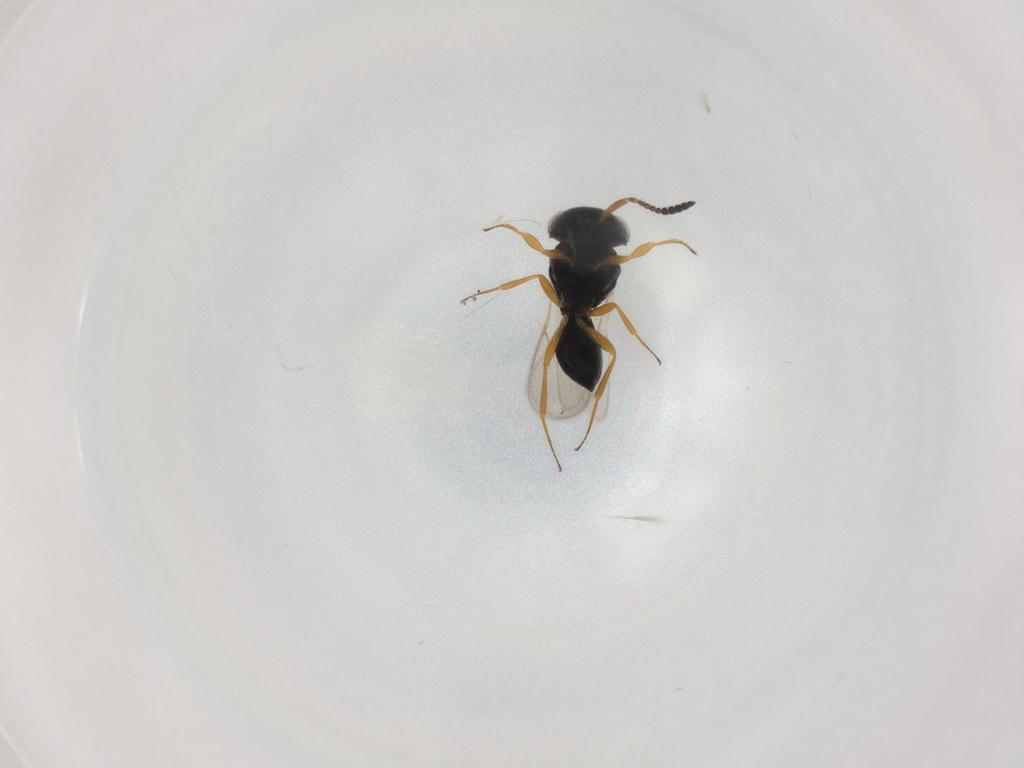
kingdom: Animalia
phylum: Arthropoda
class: Insecta
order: Hymenoptera
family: Scelionidae
